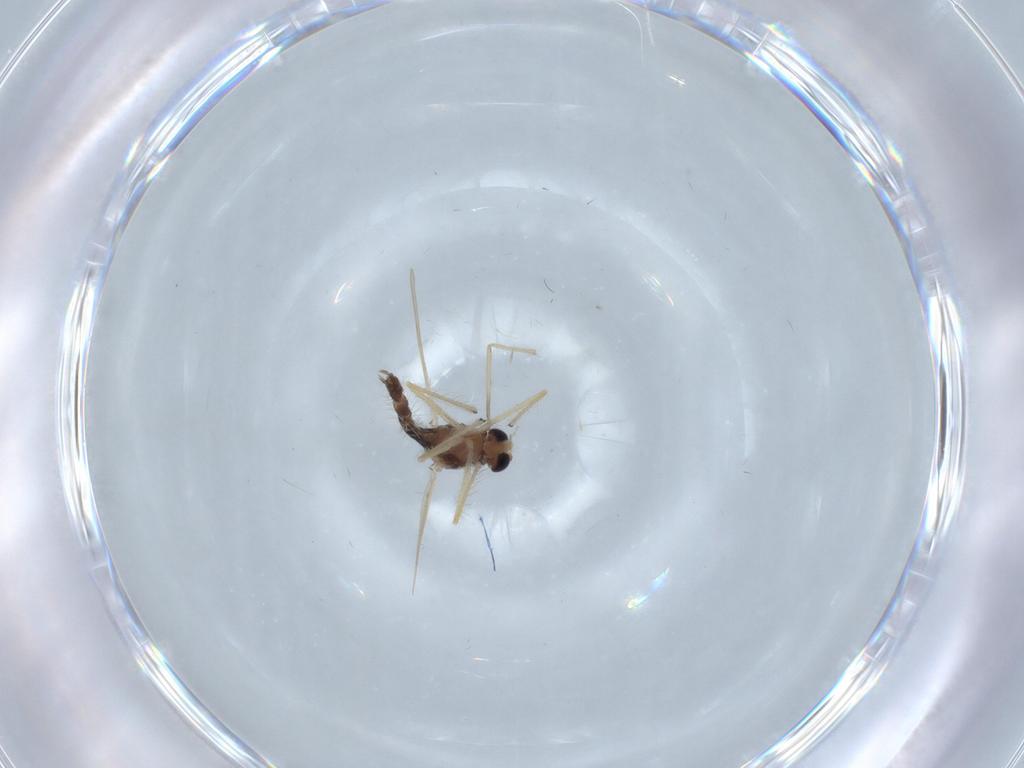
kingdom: Animalia
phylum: Arthropoda
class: Insecta
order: Diptera
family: Chironomidae
